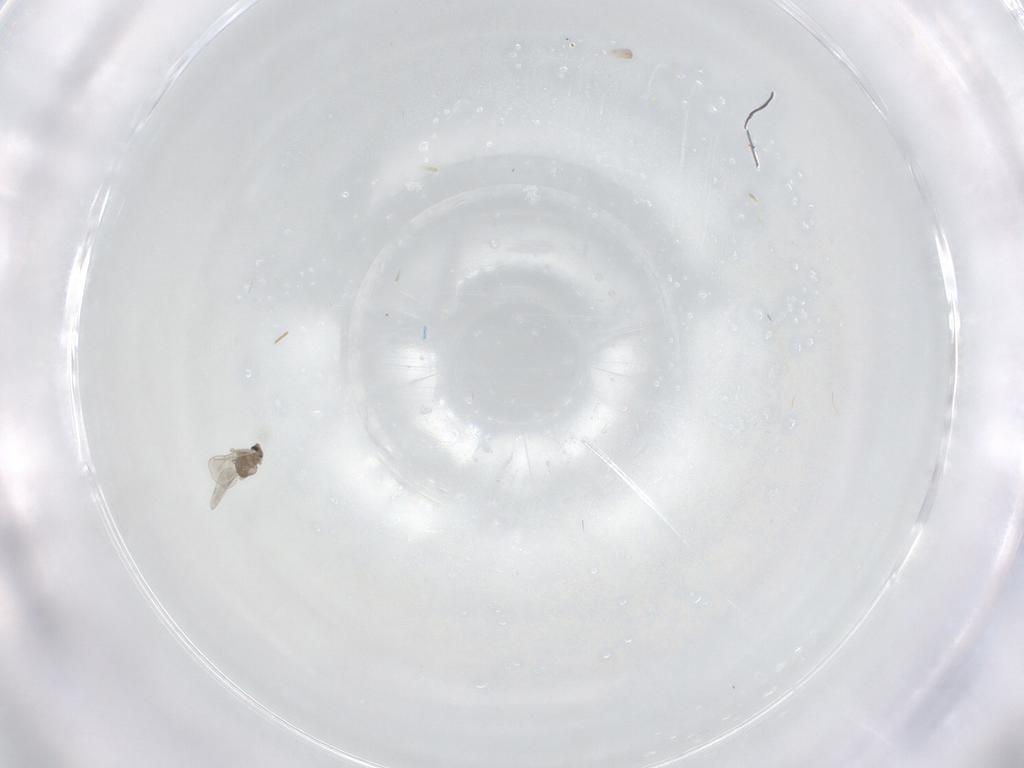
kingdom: Animalia
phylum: Arthropoda
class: Insecta
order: Diptera
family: Cecidomyiidae
